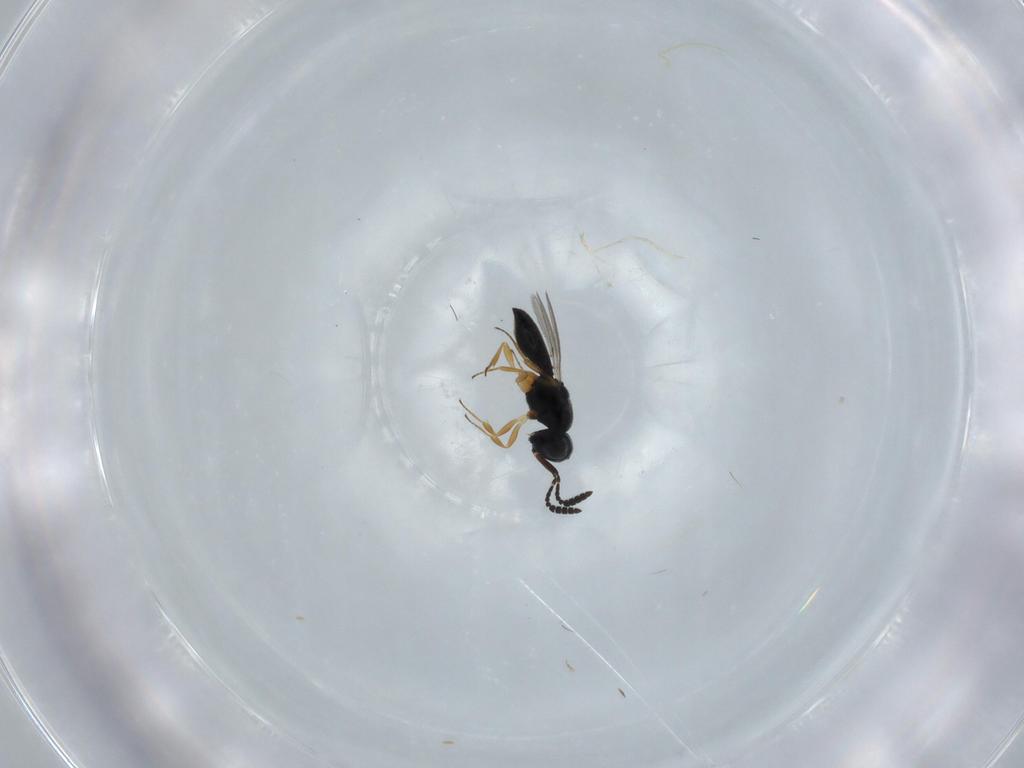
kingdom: Animalia
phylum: Arthropoda
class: Insecta
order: Hymenoptera
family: Scelionidae
